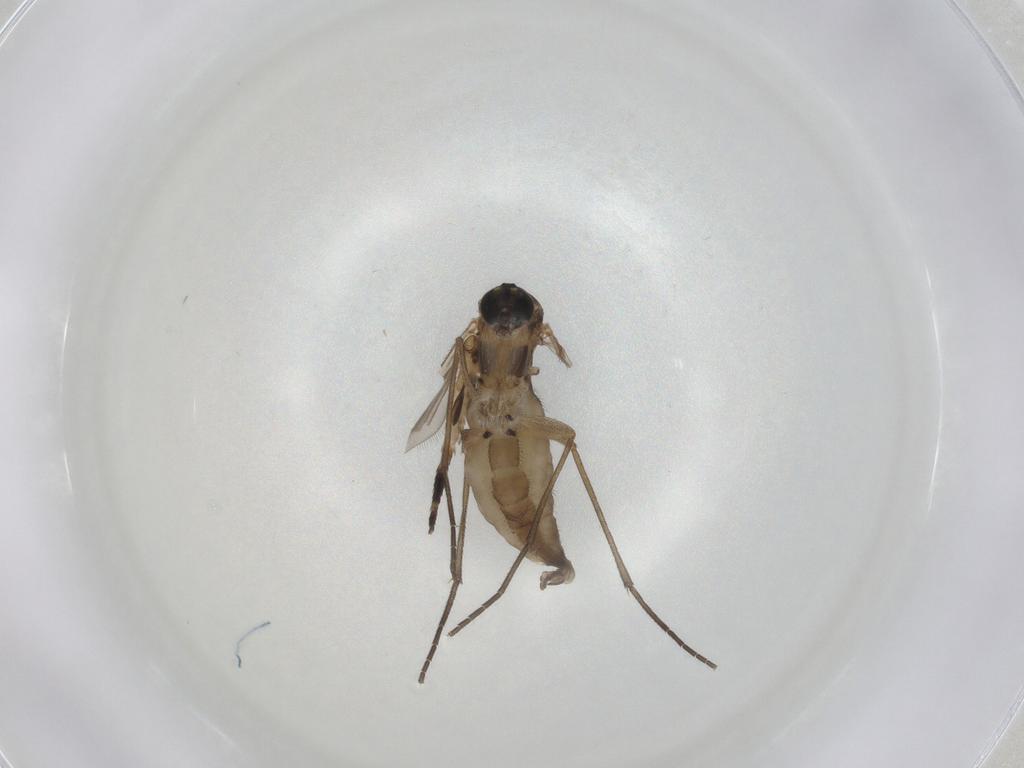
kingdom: Animalia
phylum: Arthropoda
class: Insecta
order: Diptera
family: Sciaridae
